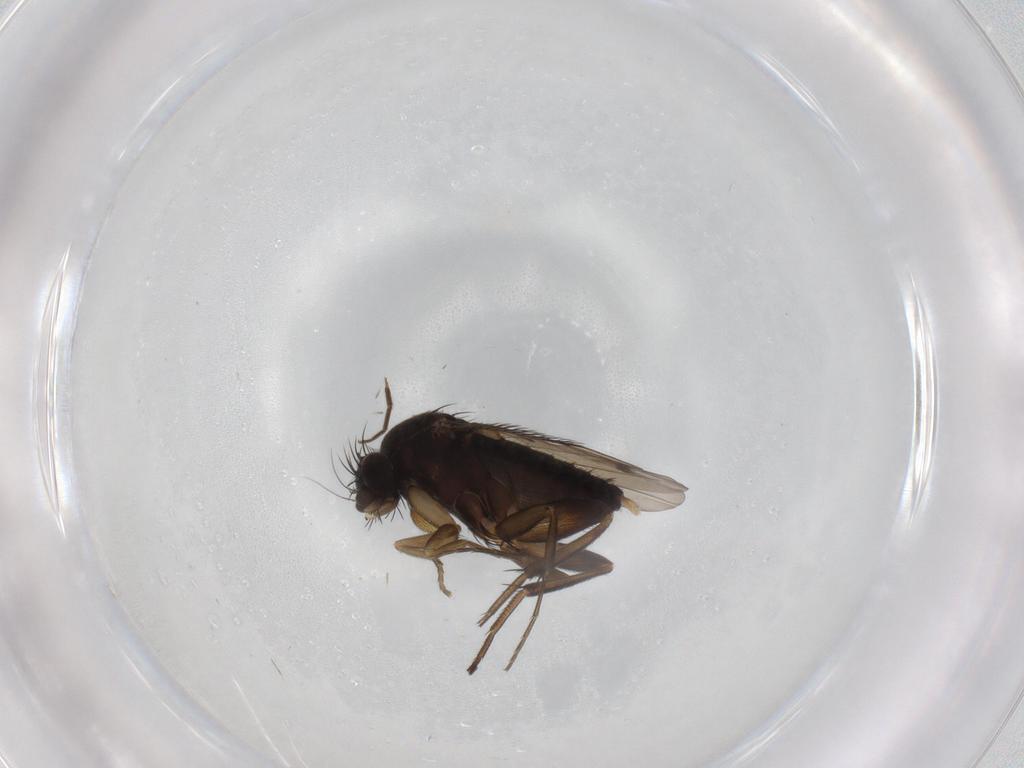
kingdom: Animalia
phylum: Arthropoda
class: Insecta
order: Diptera
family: Phoridae
